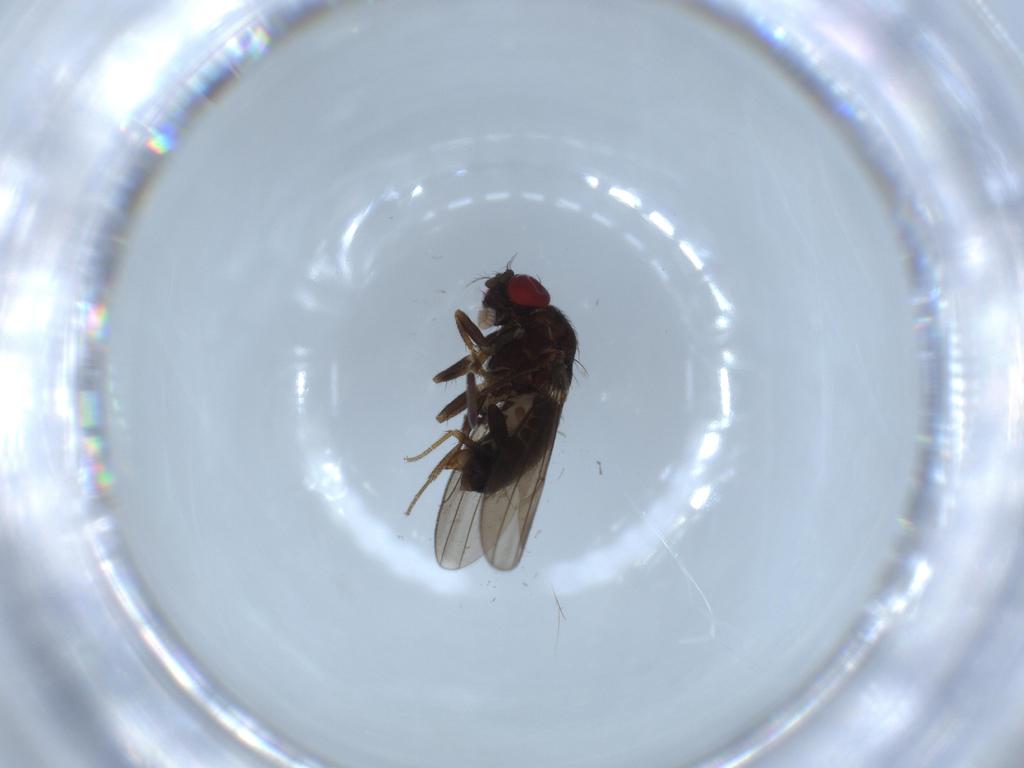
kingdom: Animalia
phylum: Arthropoda
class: Insecta
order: Diptera
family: Drosophilidae
